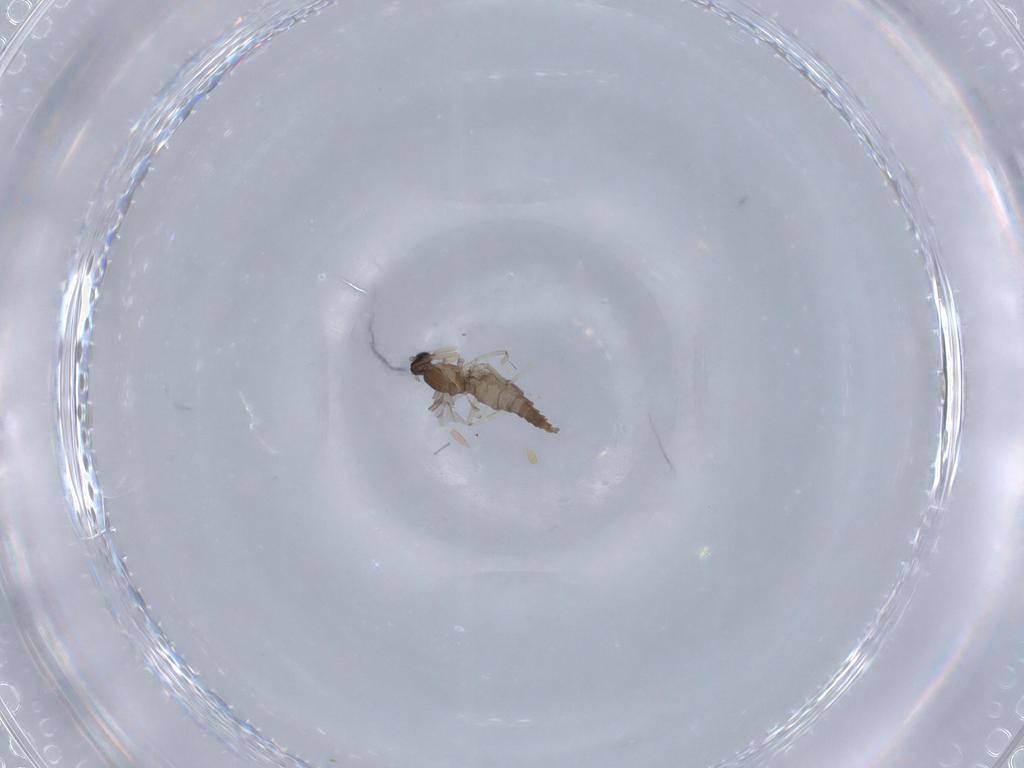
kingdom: Animalia
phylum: Arthropoda
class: Insecta
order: Diptera
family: Cecidomyiidae
